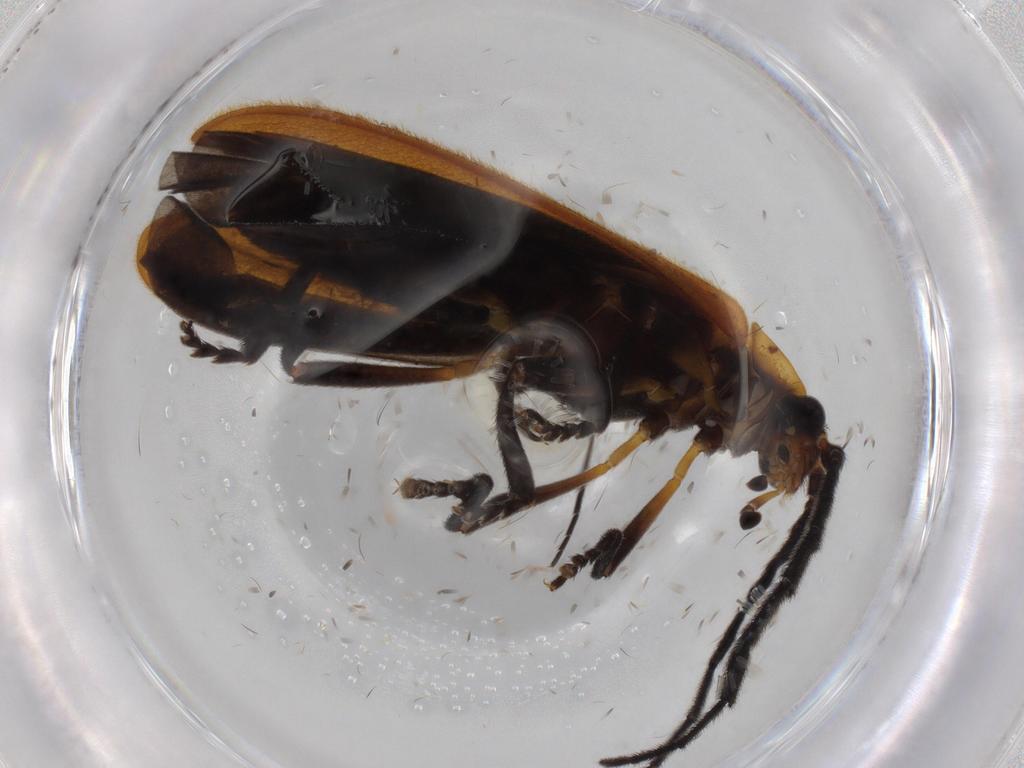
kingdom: Animalia
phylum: Arthropoda
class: Insecta
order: Coleoptera
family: Lycidae
